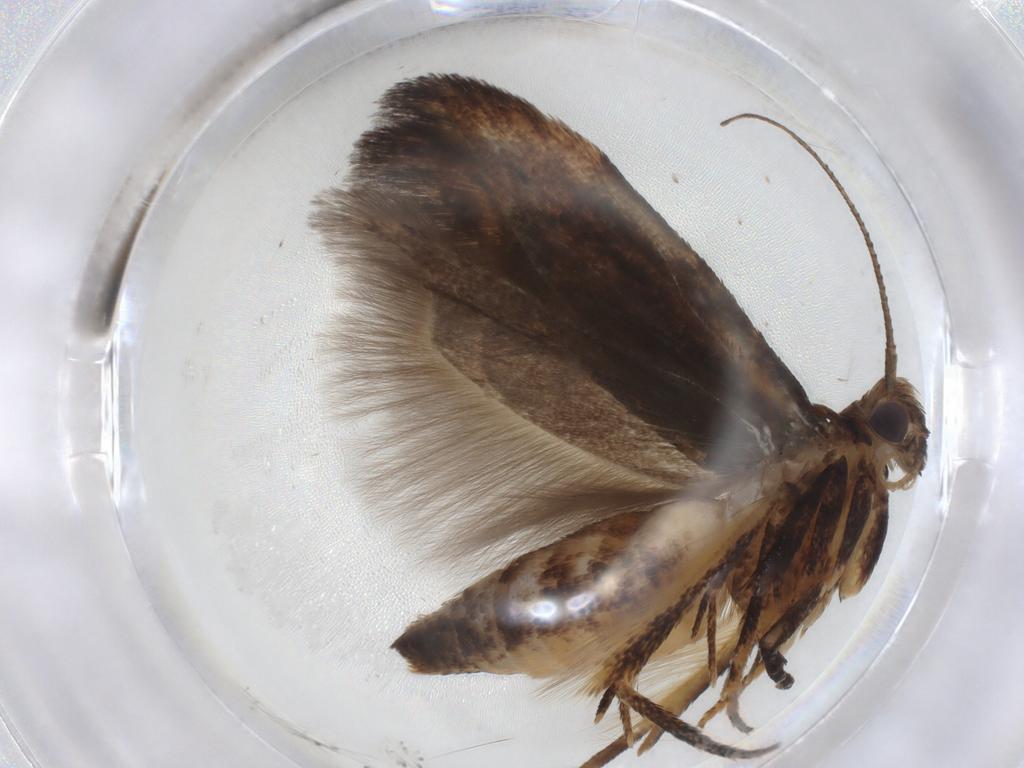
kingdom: Animalia
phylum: Arthropoda
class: Insecta
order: Lepidoptera
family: Gelechiidae
